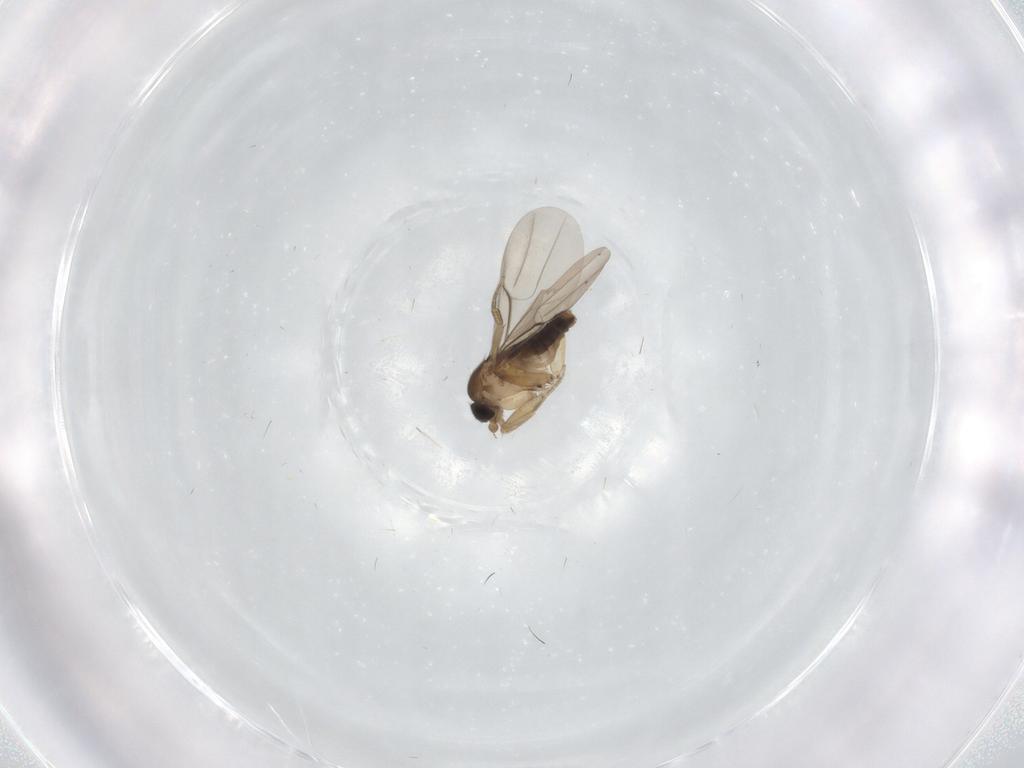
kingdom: Animalia
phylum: Arthropoda
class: Insecta
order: Diptera
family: Phoridae
